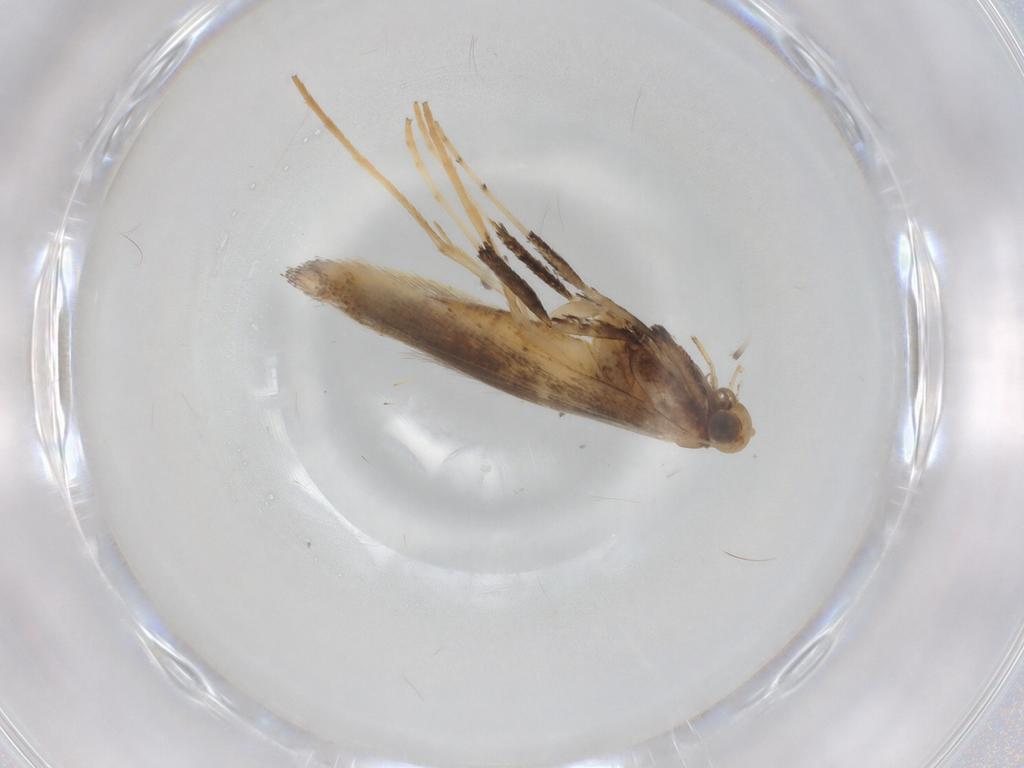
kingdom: Animalia
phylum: Arthropoda
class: Insecta
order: Lepidoptera
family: Gracillariidae
